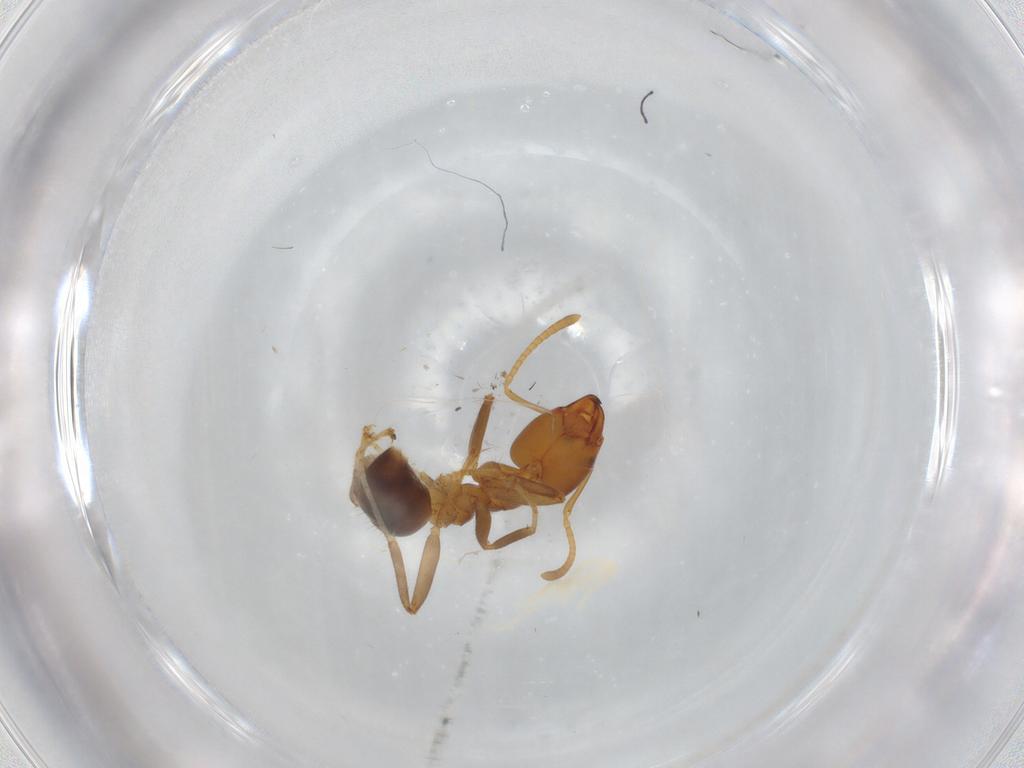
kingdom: Animalia
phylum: Arthropoda
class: Insecta
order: Hymenoptera
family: Formicidae
